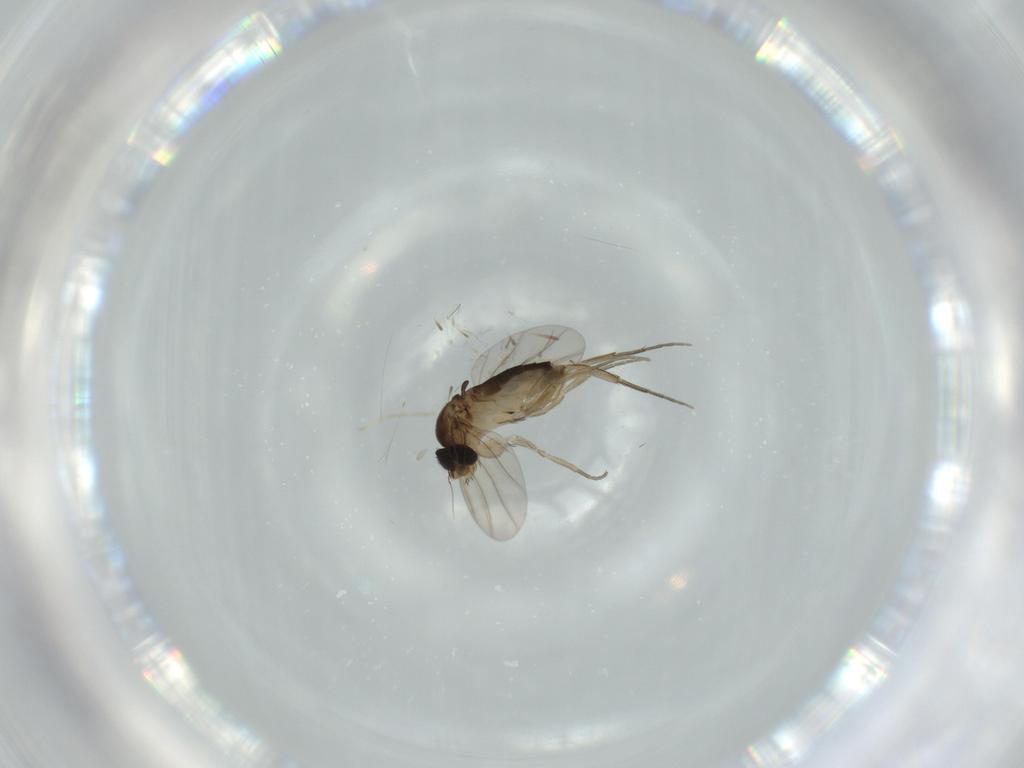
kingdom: Animalia
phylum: Arthropoda
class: Insecta
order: Diptera
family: Phoridae
